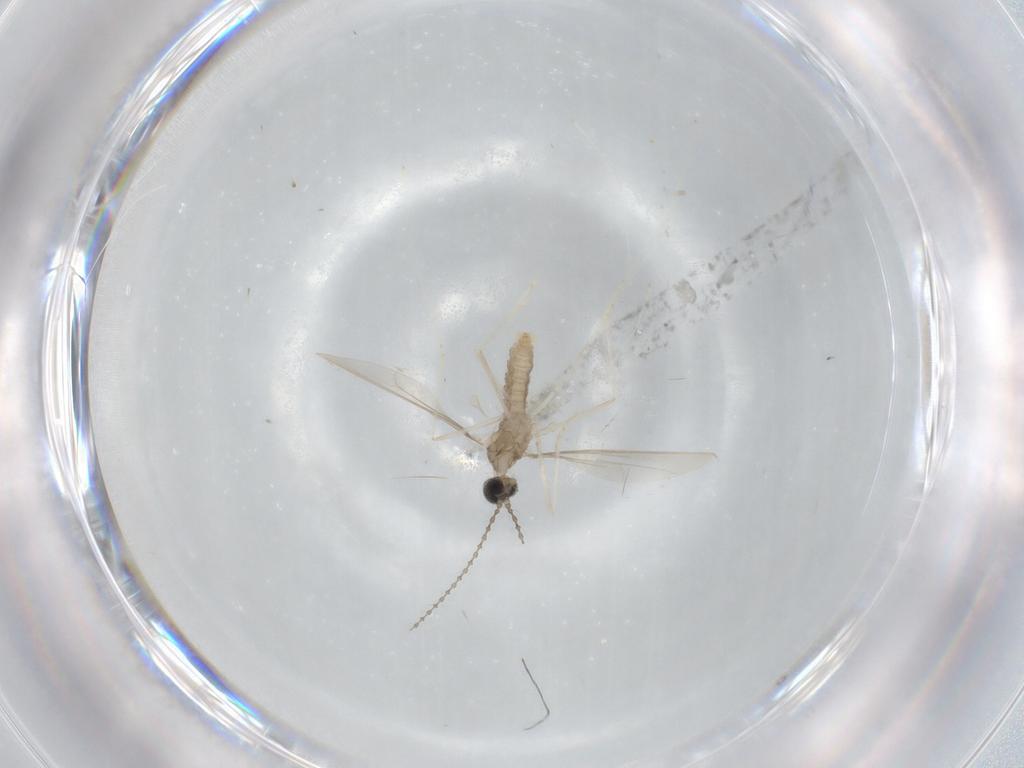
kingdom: Animalia
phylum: Arthropoda
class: Insecta
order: Diptera
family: Cecidomyiidae
